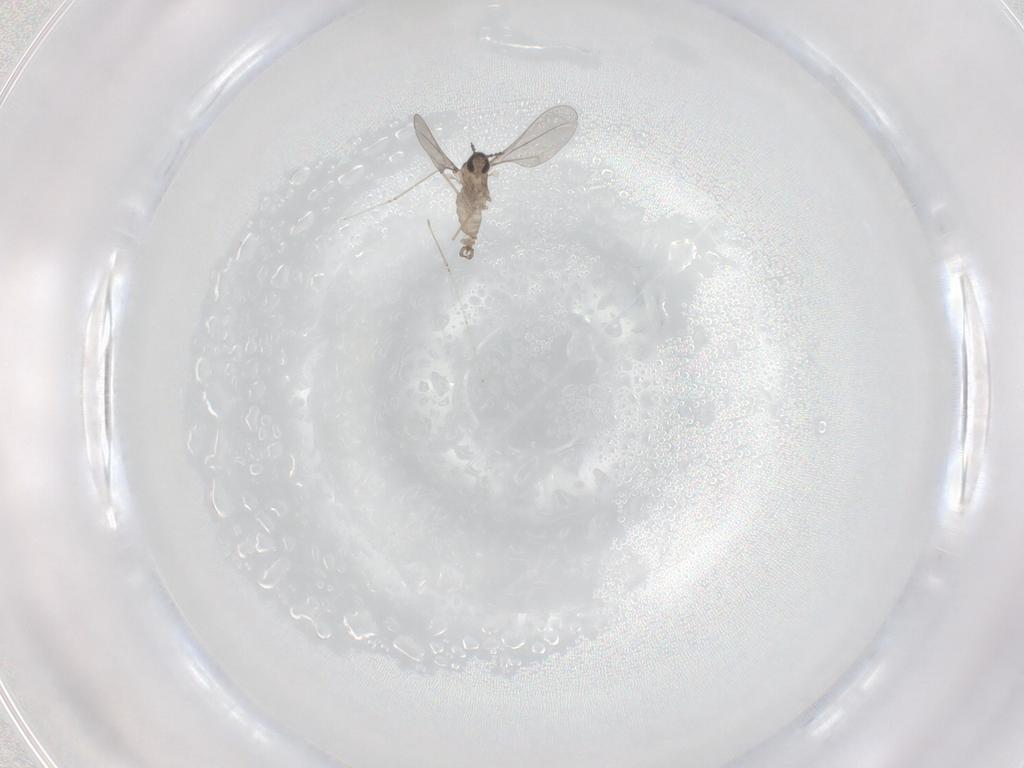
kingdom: Animalia
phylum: Arthropoda
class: Insecta
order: Diptera
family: Cecidomyiidae
